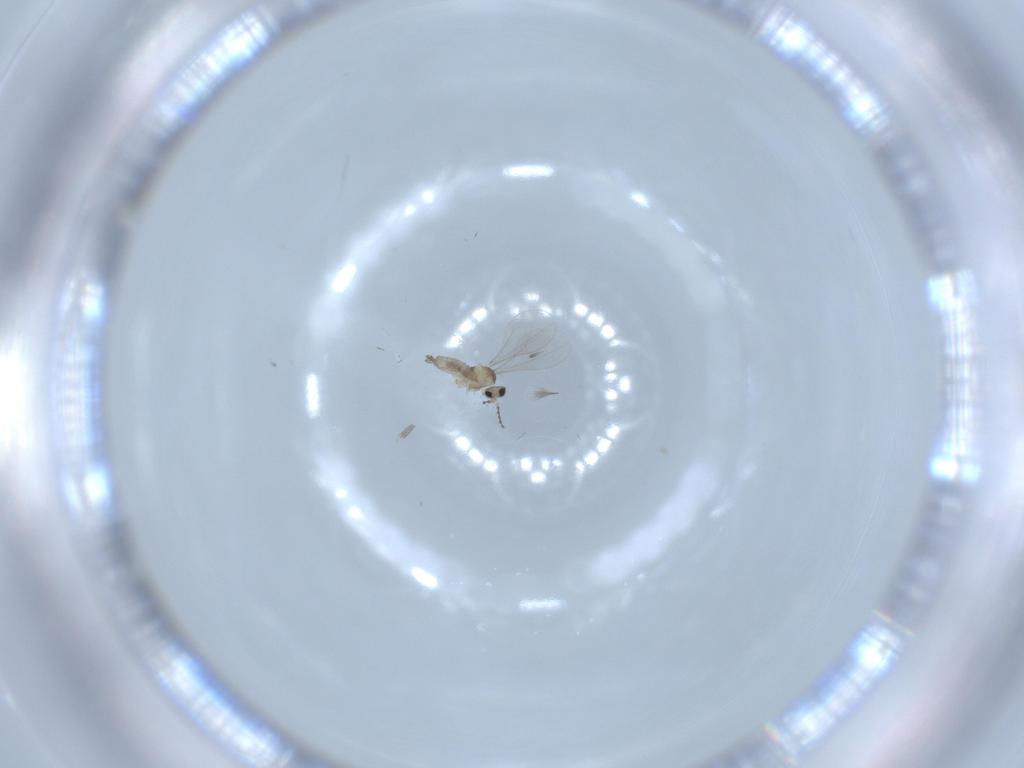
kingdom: Animalia
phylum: Arthropoda
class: Insecta
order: Diptera
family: Cecidomyiidae
